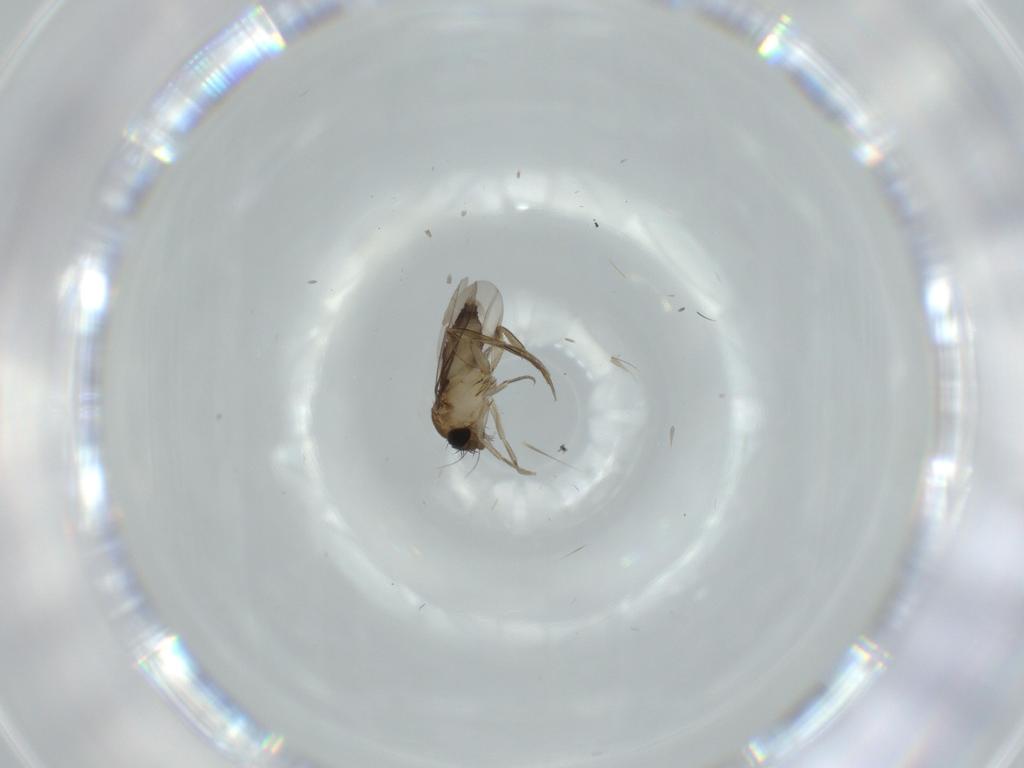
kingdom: Animalia
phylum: Arthropoda
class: Insecta
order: Diptera
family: Phoridae
